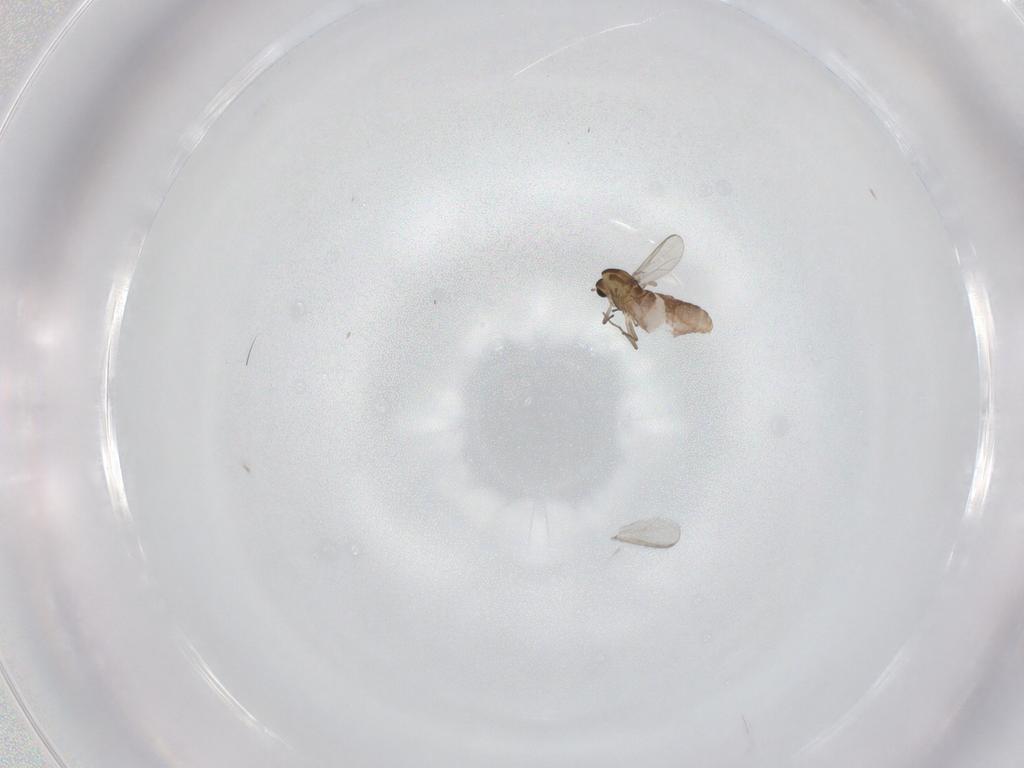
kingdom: Animalia
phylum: Arthropoda
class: Insecta
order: Diptera
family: Chironomidae
